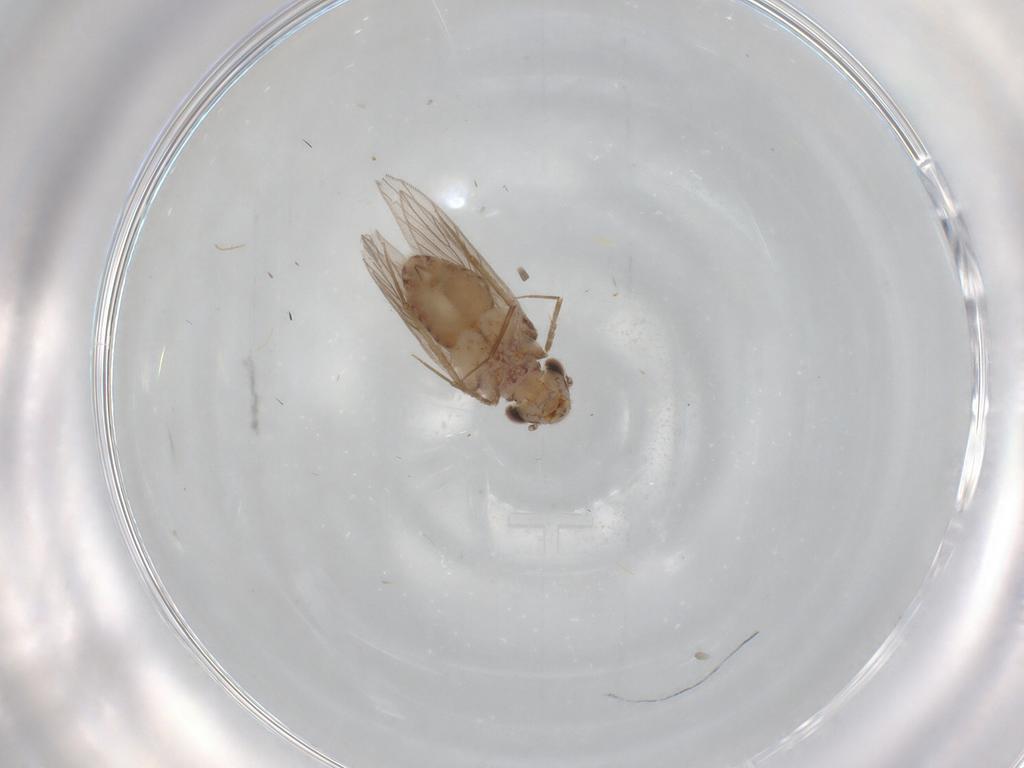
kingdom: Animalia
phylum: Arthropoda
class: Insecta
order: Psocodea
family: Lepidopsocidae
